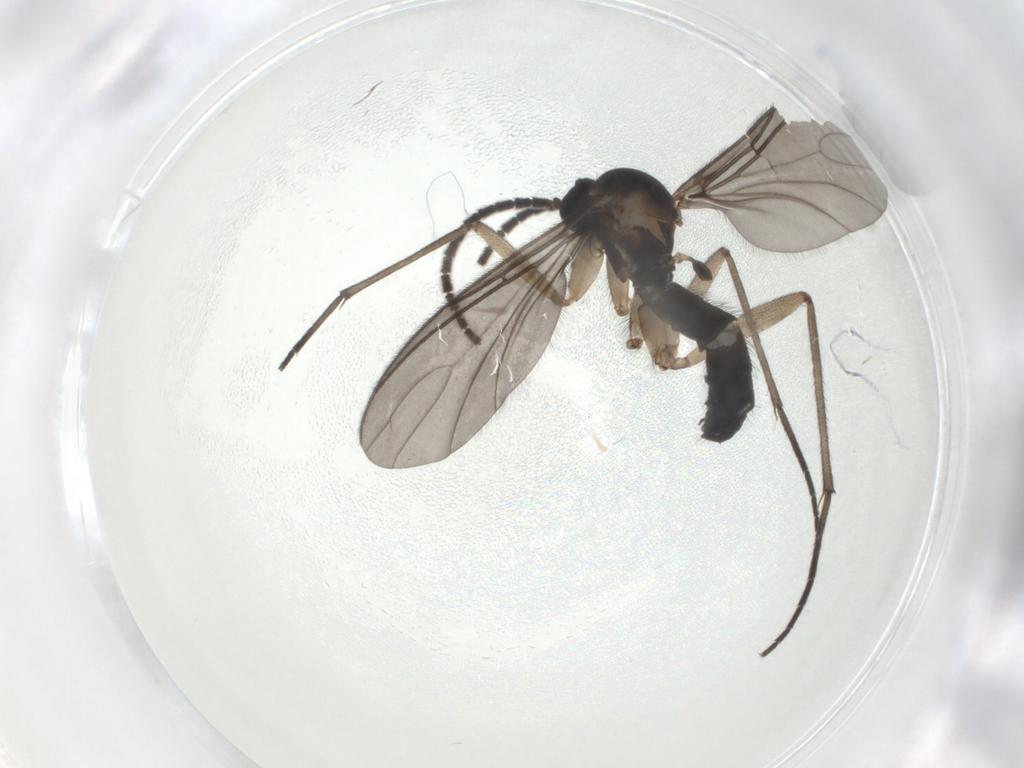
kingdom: Animalia
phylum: Arthropoda
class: Insecta
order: Diptera
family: Sciaridae
